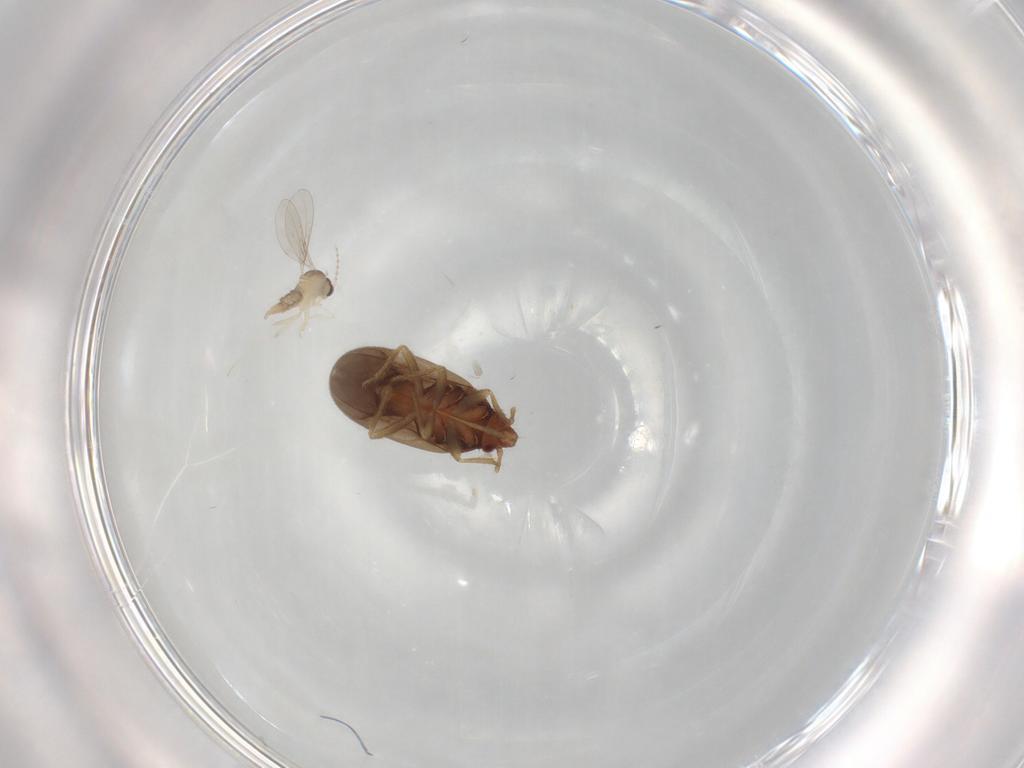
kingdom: Animalia
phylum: Arthropoda
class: Insecta
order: Hemiptera
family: Ceratocombidae
